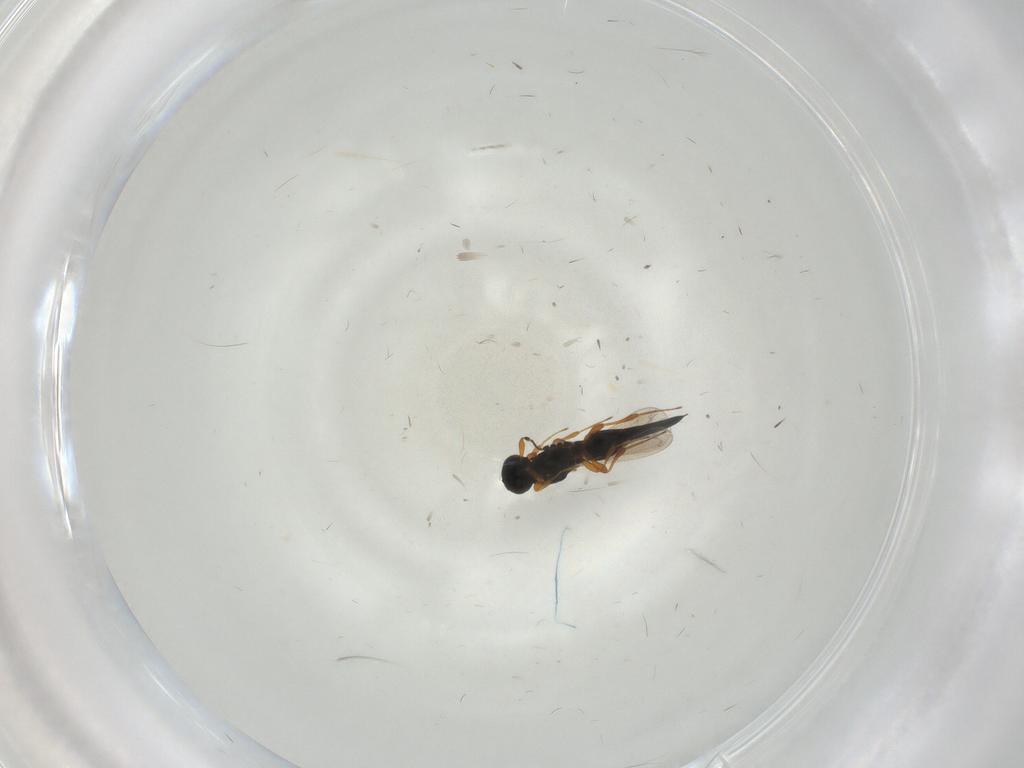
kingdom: Animalia
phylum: Arthropoda
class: Insecta
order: Hymenoptera
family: Platygastridae
